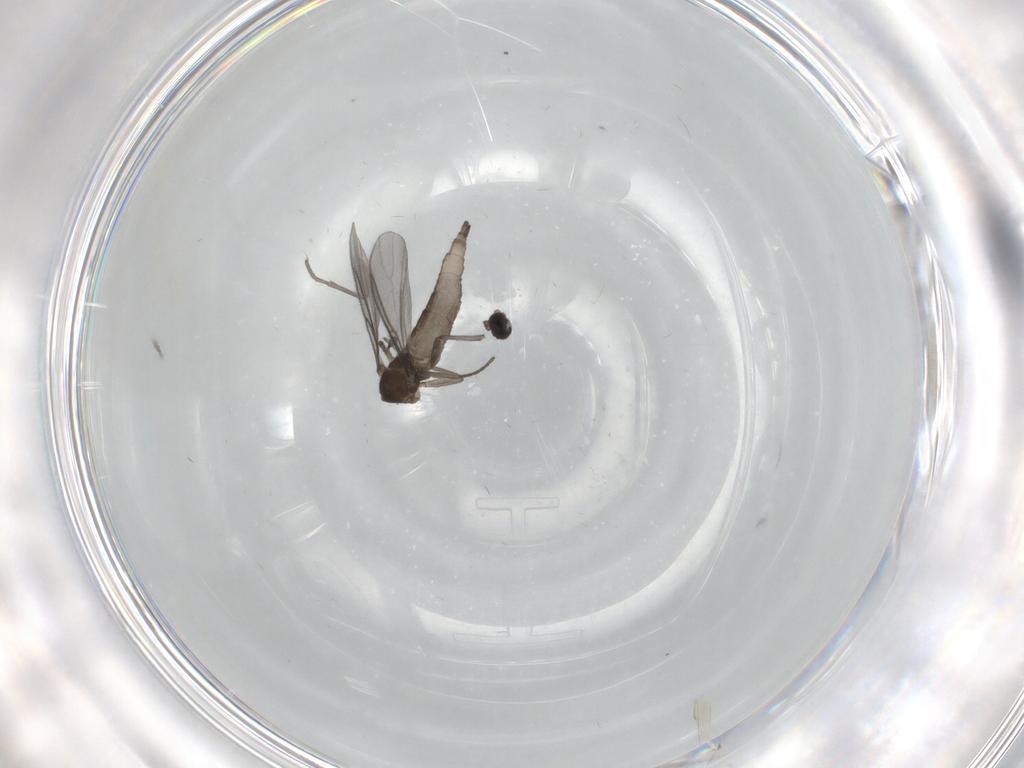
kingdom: Animalia
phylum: Arthropoda
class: Insecta
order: Diptera
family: Sciaridae
